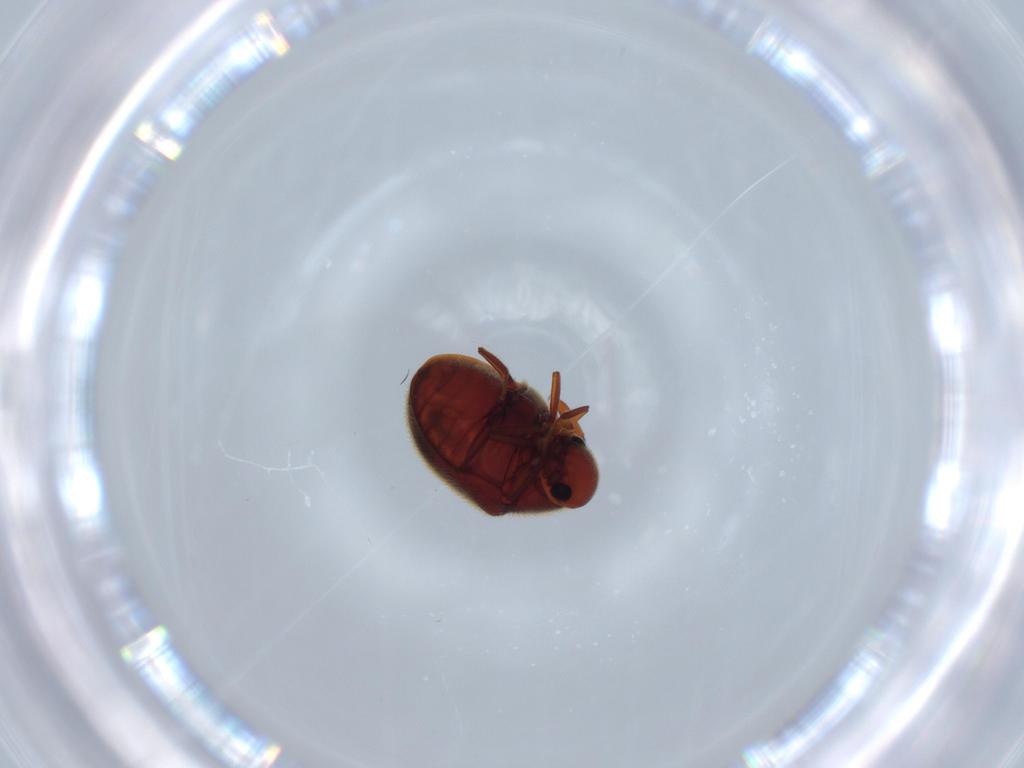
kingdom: Animalia
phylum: Arthropoda
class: Insecta
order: Coleoptera
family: Ptinidae
